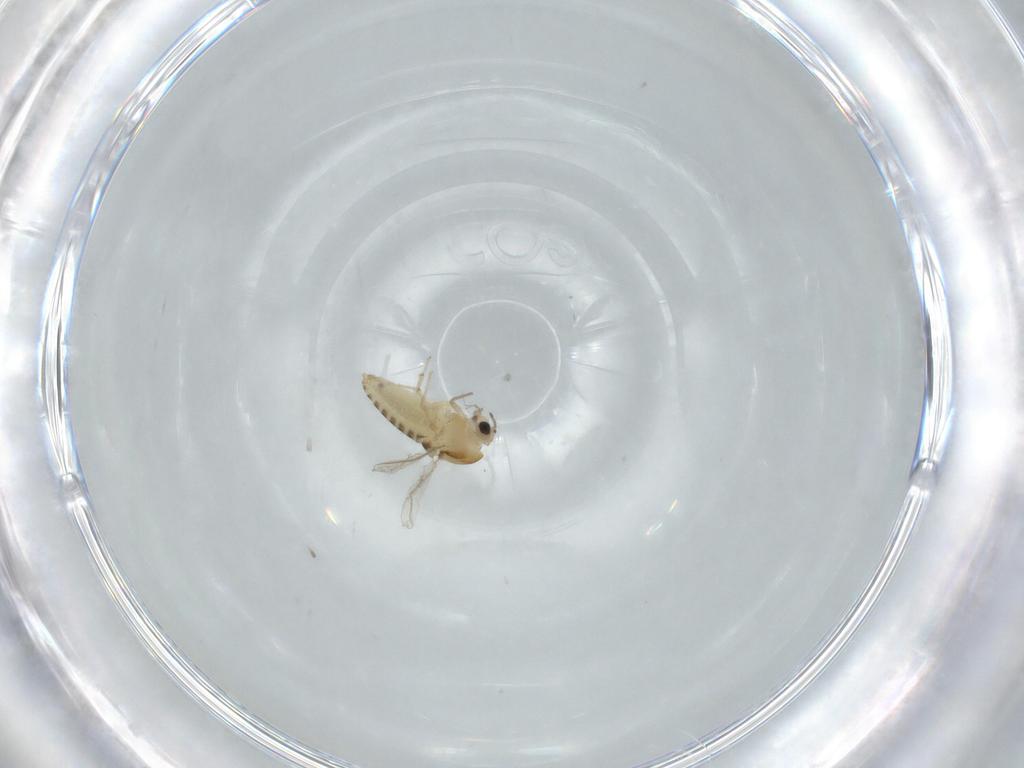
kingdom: Animalia
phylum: Arthropoda
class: Insecta
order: Diptera
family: Chironomidae
